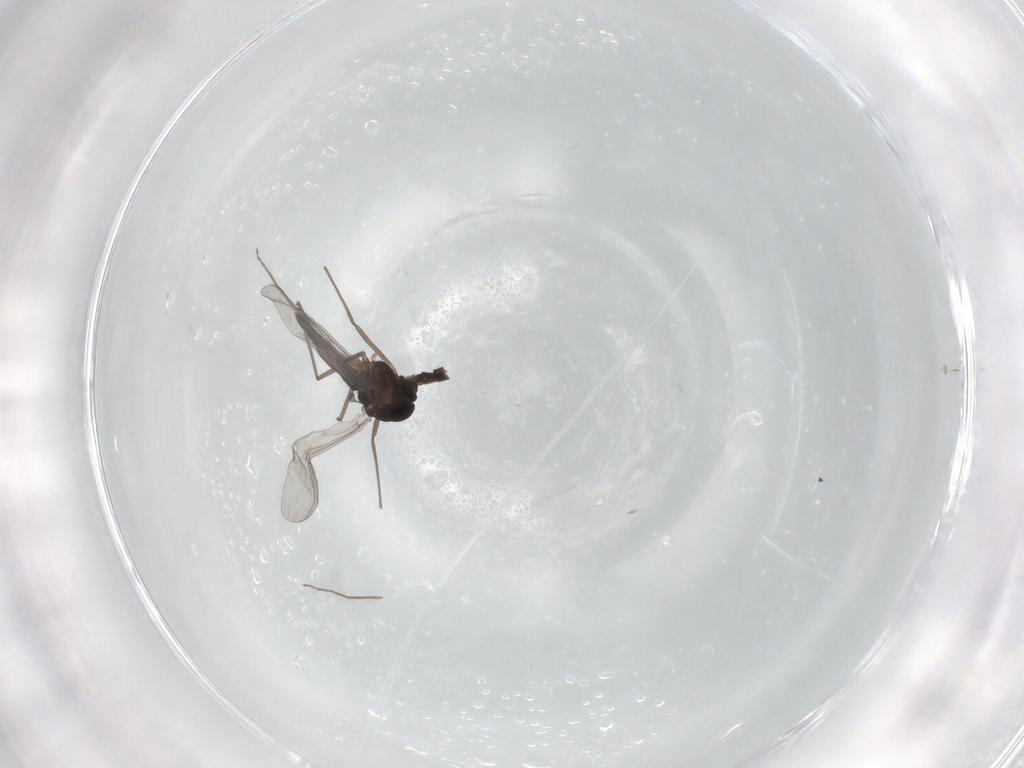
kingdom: Animalia
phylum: Arthropoda
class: Insecta
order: Diptera
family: Chironomidae
